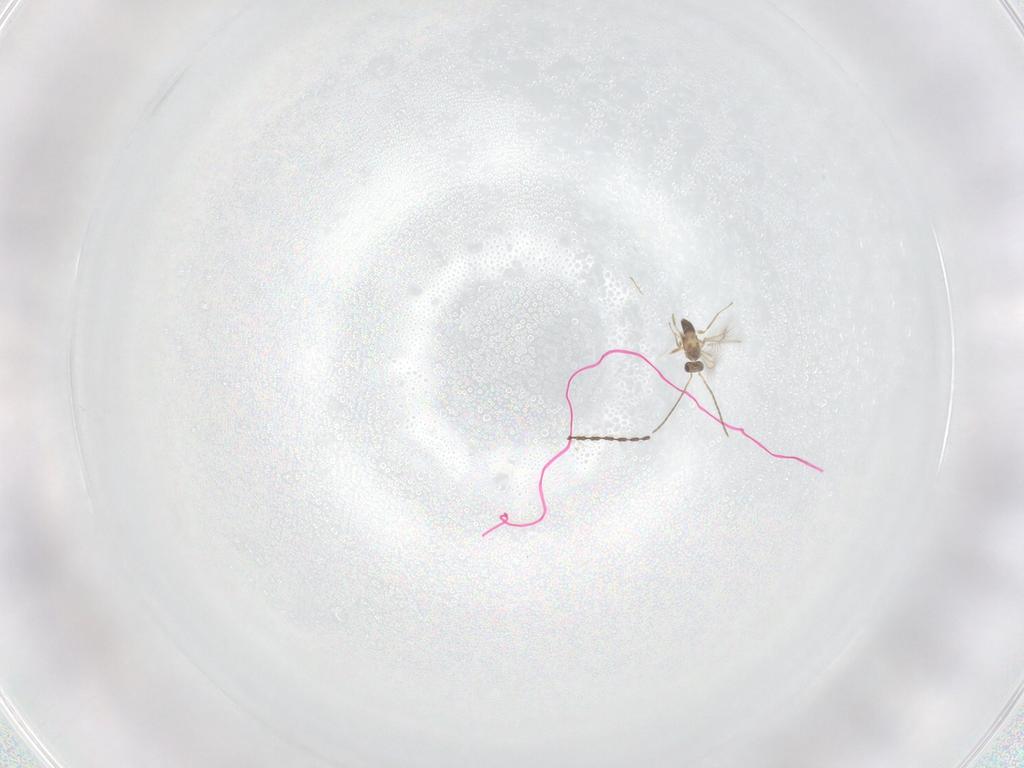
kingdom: Animalia
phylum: Arthropoda
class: Insecta
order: Hymenoptera
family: Mymaridae
